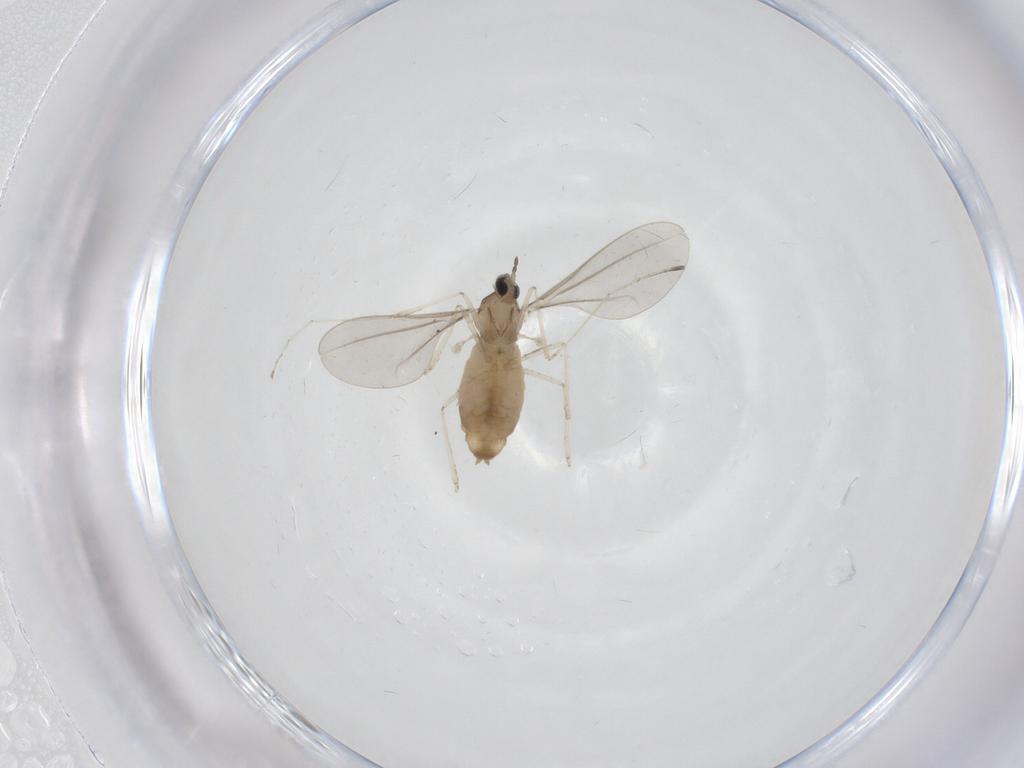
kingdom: Animalia
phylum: Arthropoda
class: Insecta
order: Diptera
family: Cecidomyiidae
